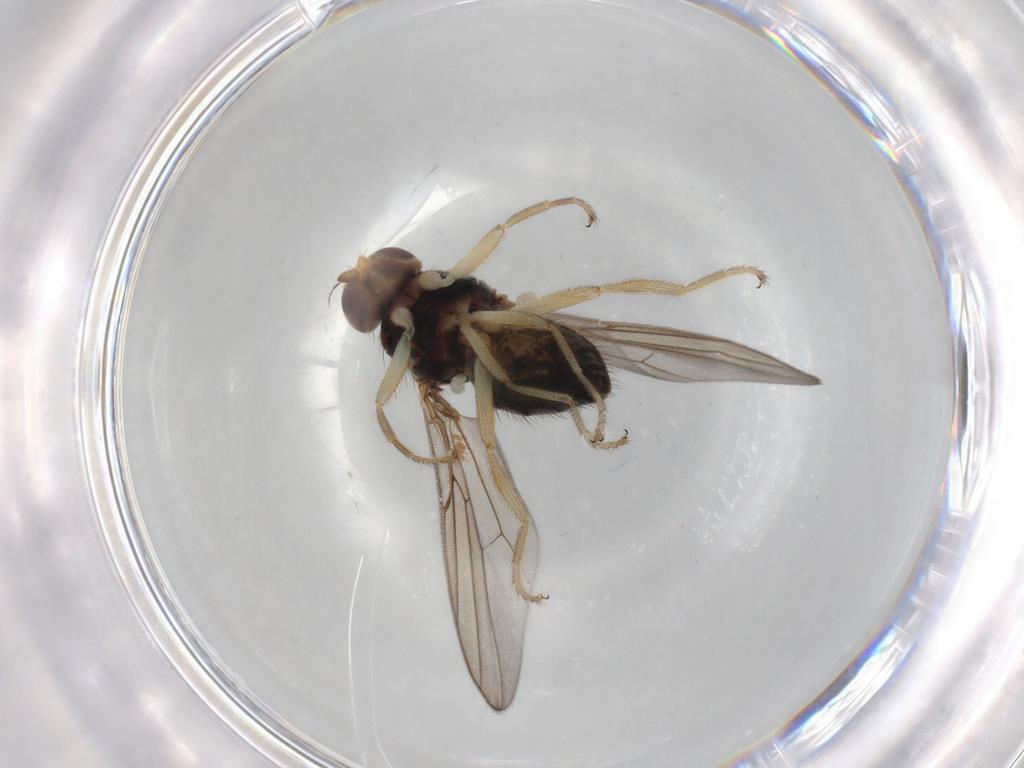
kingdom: Animalia
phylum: Arthropoda
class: Insecta
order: Diptera
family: Chloropidae
